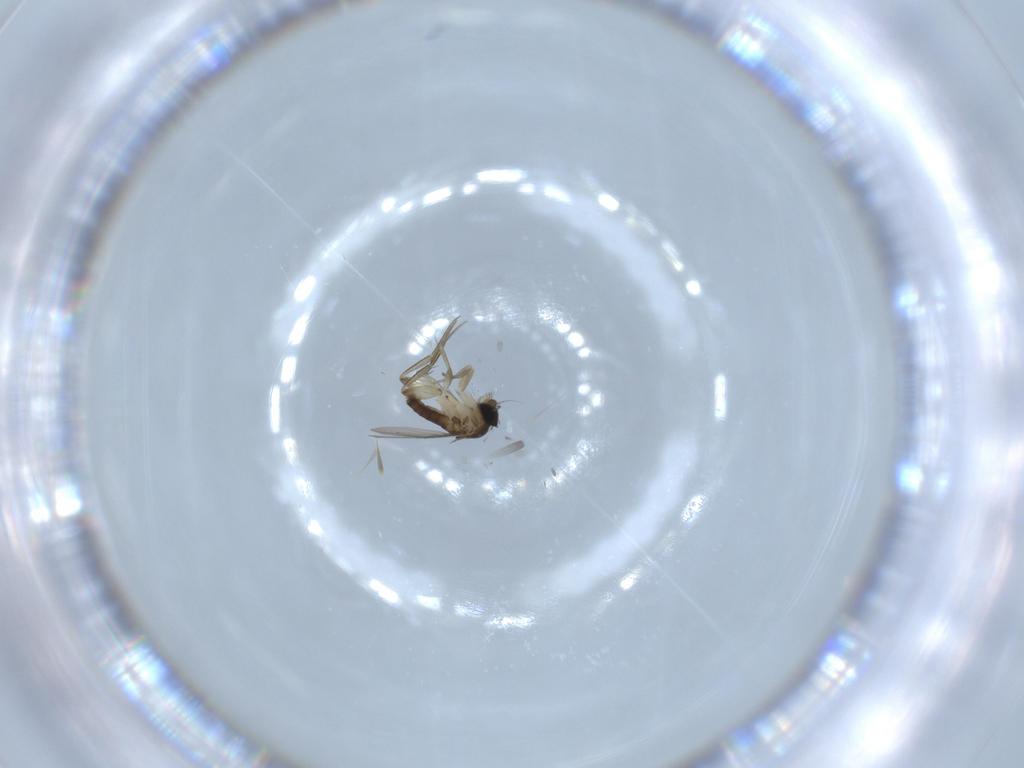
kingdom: Animalia
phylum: Arthropoda
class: Insecta
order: Diptera
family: Phoridae
